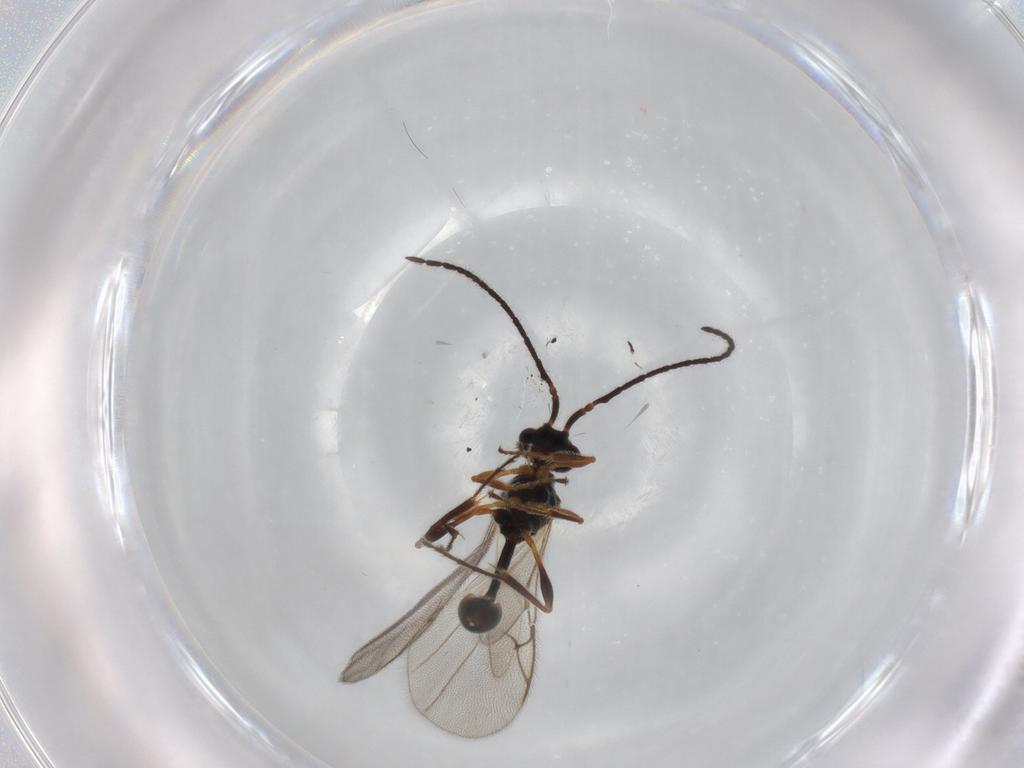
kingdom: Animalia
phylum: Arthropoda
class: Insecta
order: Hymenoptera
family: Diapriidae
